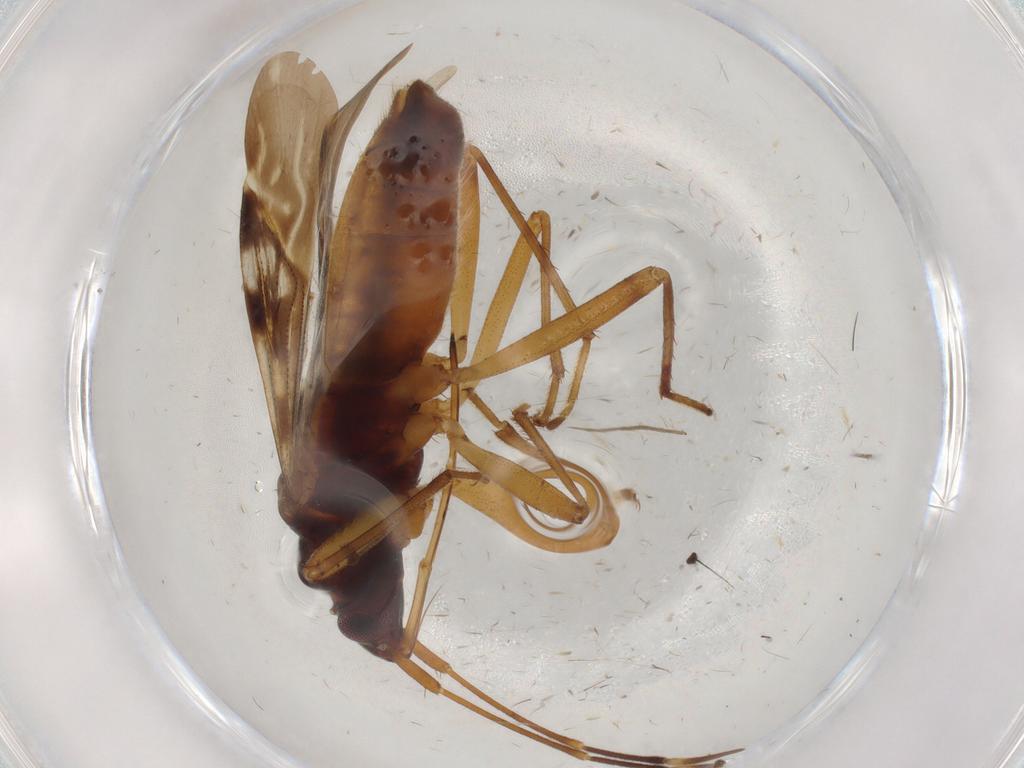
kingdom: Animalia
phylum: Arthropoda
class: Insecta
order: Hemiptera
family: Rhyparochromidae
